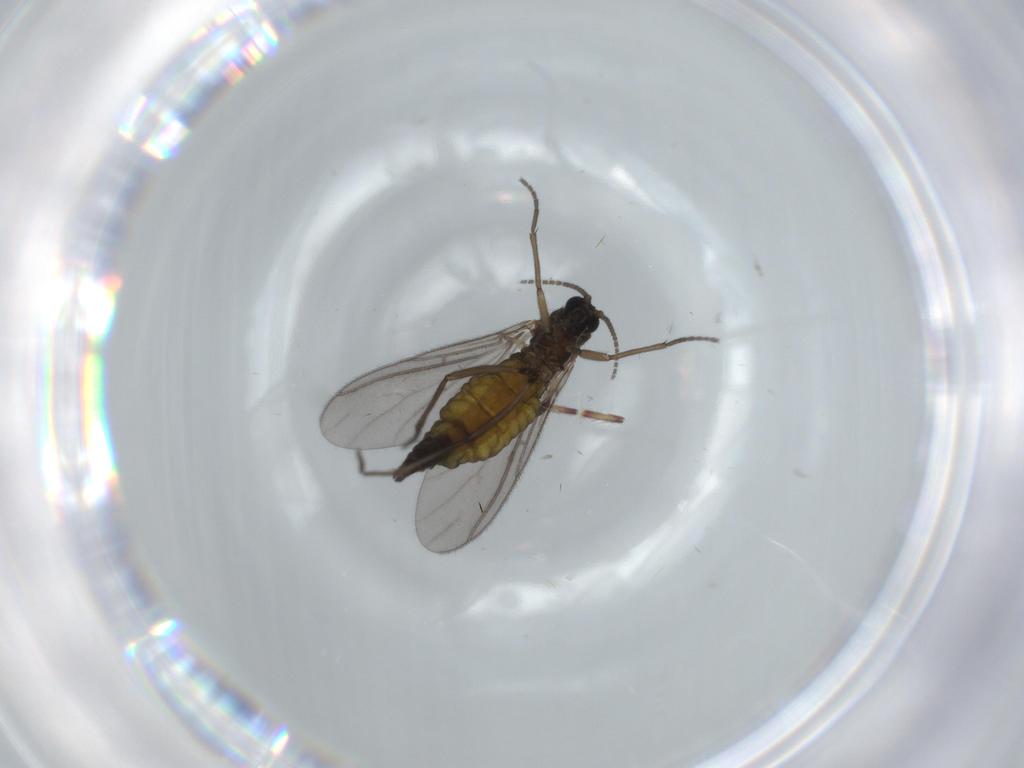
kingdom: Animalia
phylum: Arthropoda
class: Insecta
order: Diptera
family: Sciaridae
